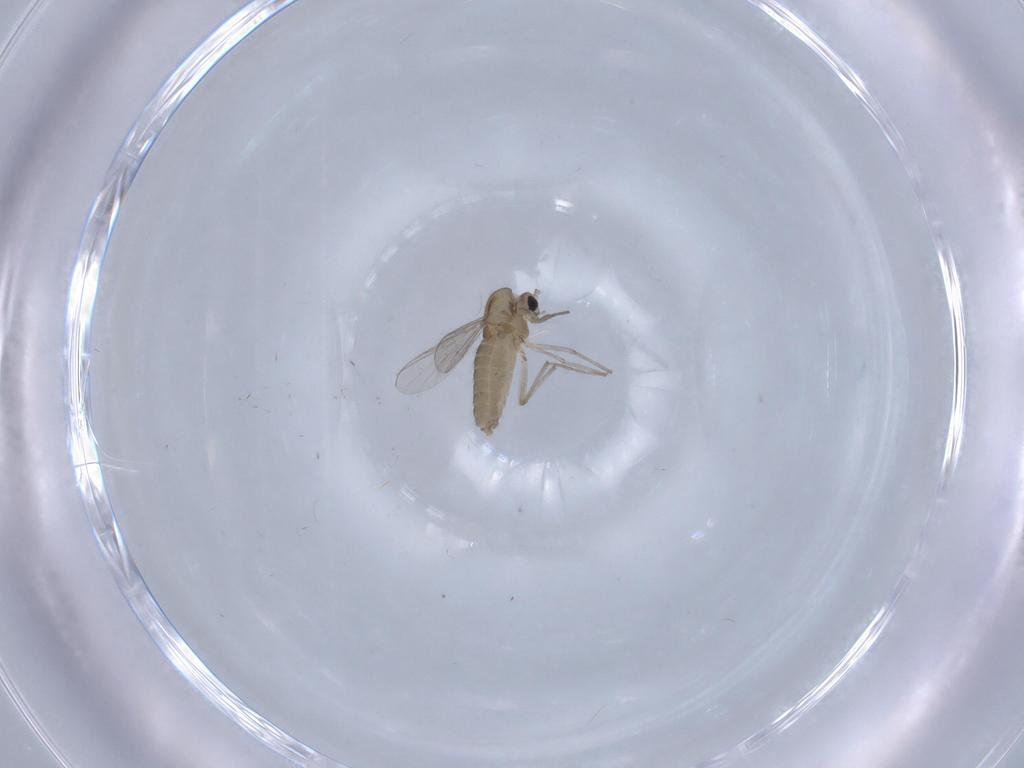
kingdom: Animalia
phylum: Arthropoda
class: Insecta
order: Diptera
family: Chironomidae
